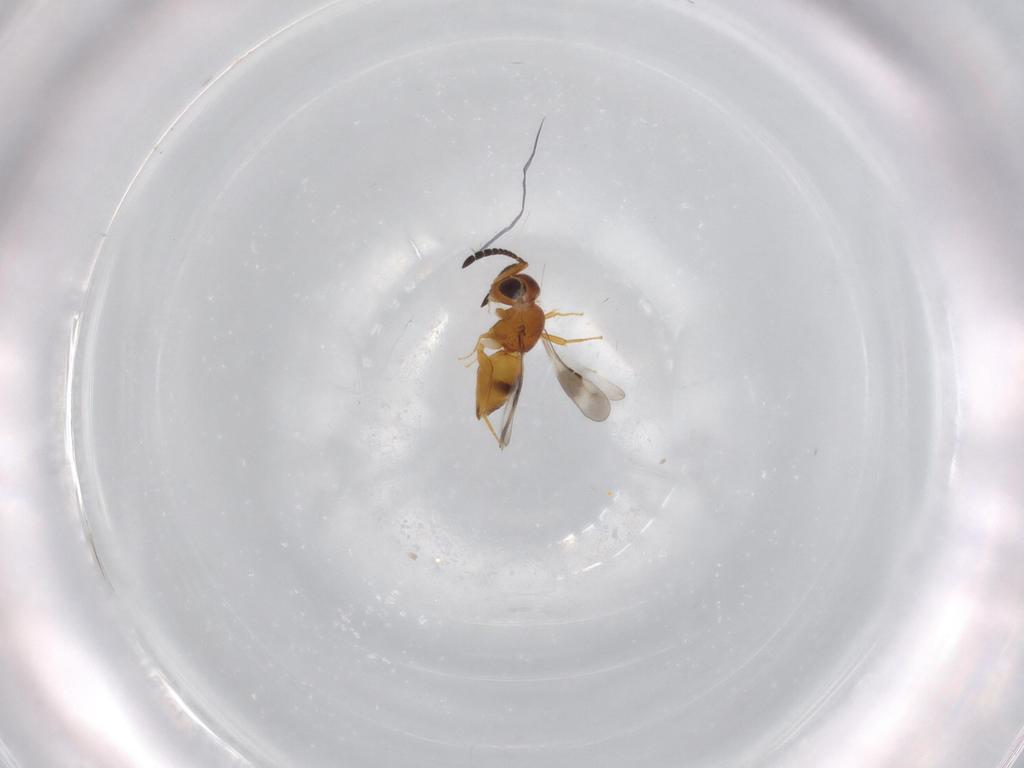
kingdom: Animalia
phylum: Arthropoda
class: Insecta
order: Hymenoptera
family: Ceraphronidae
